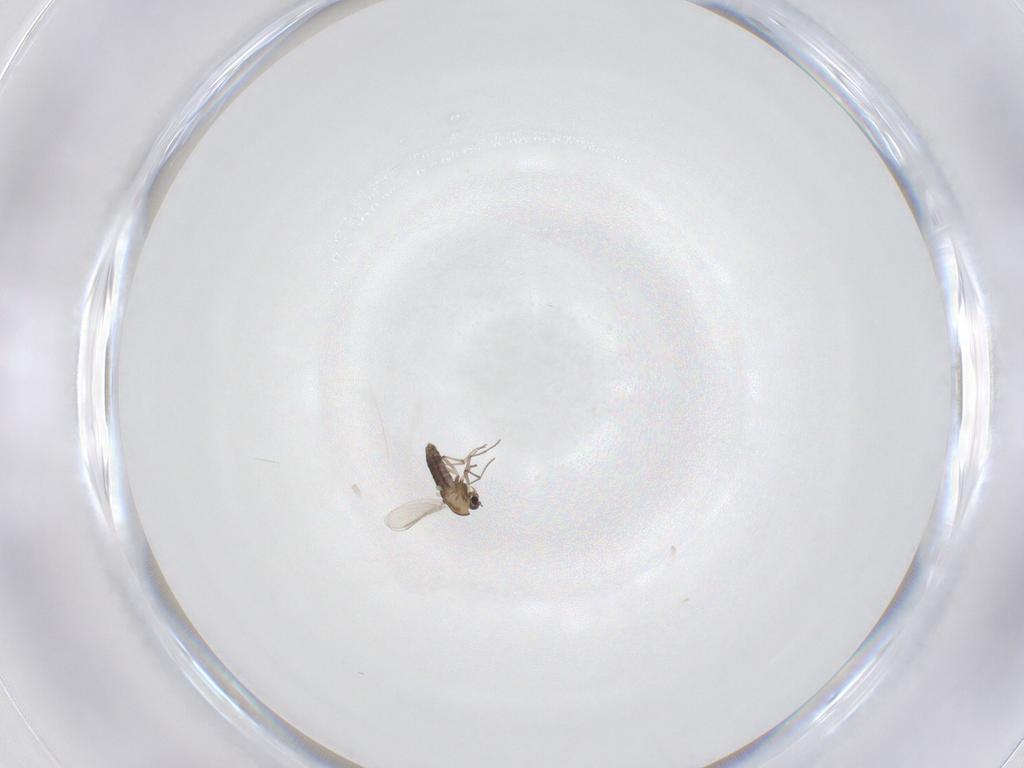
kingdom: Animalia
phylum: Arthropoda
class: Insecta
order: Diptera
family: Chironomidae
